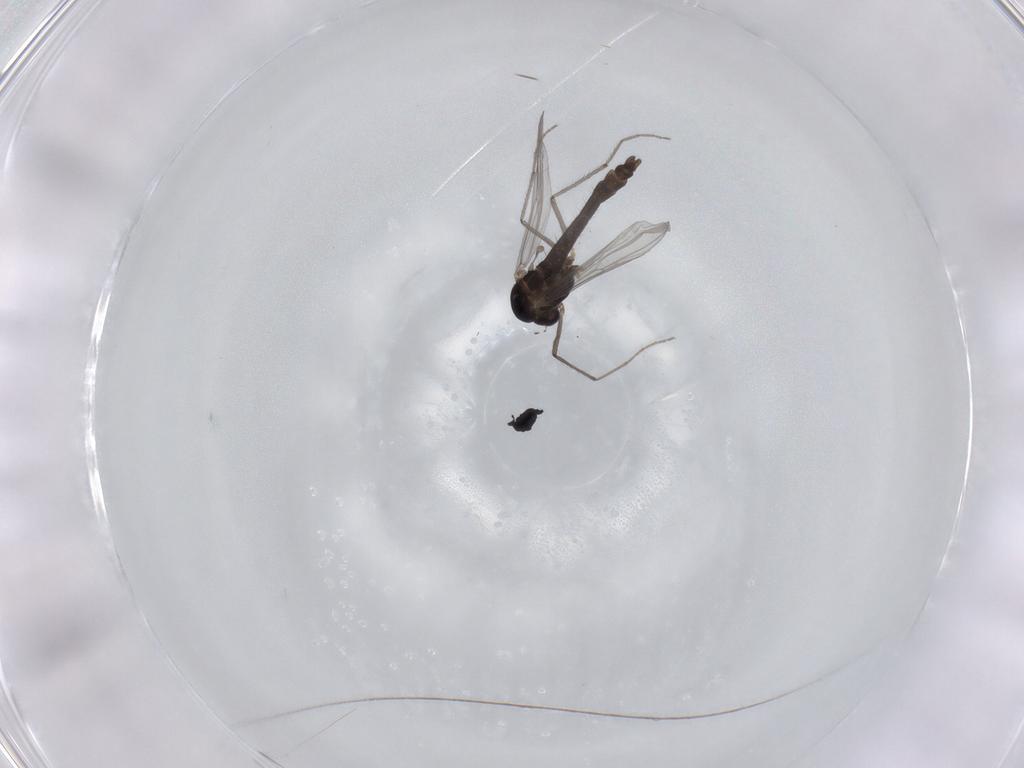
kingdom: Animalia
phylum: Arthropoda
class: Insecta
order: Diptera
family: Chironomidae
